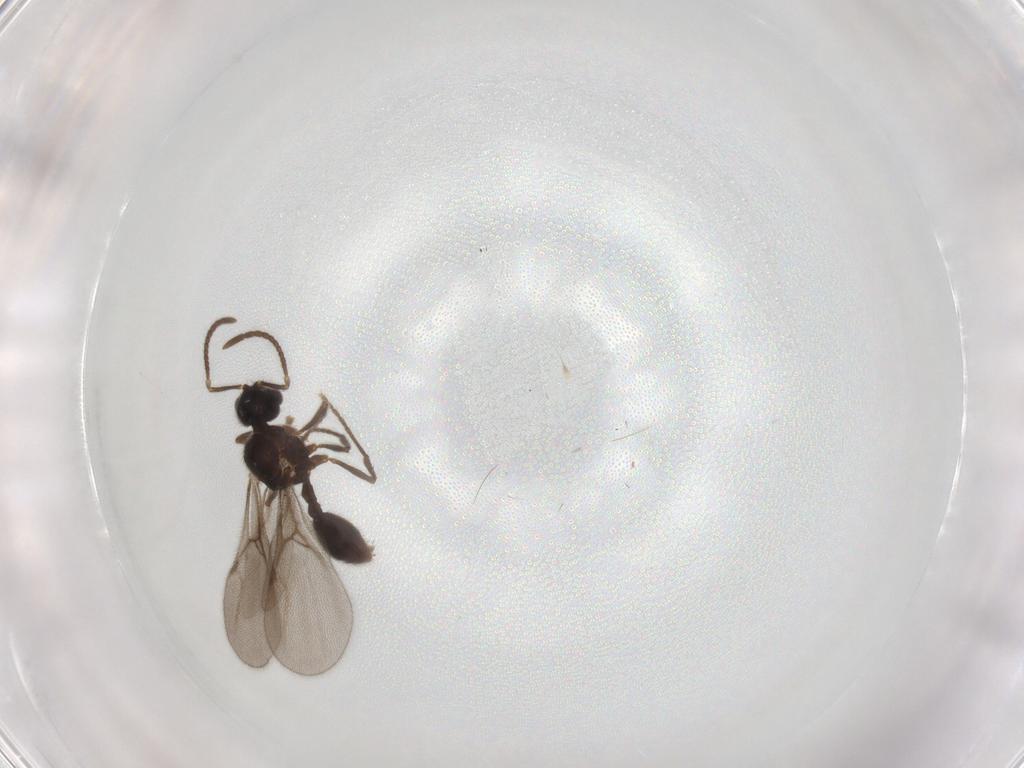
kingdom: Animalia
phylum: Arthropoda
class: Insecta
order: Hymenoptera
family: Formicidae
